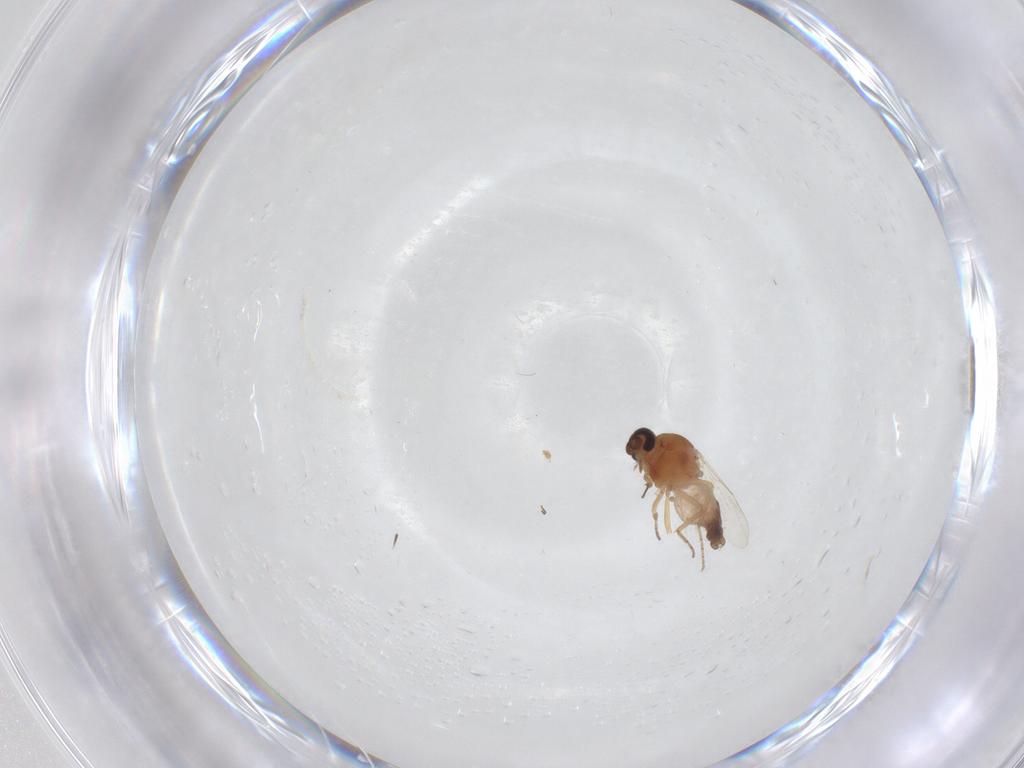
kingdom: Animalia
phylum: Arthropoda
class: Insecta
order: Diptera
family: Ceratopogonidae
